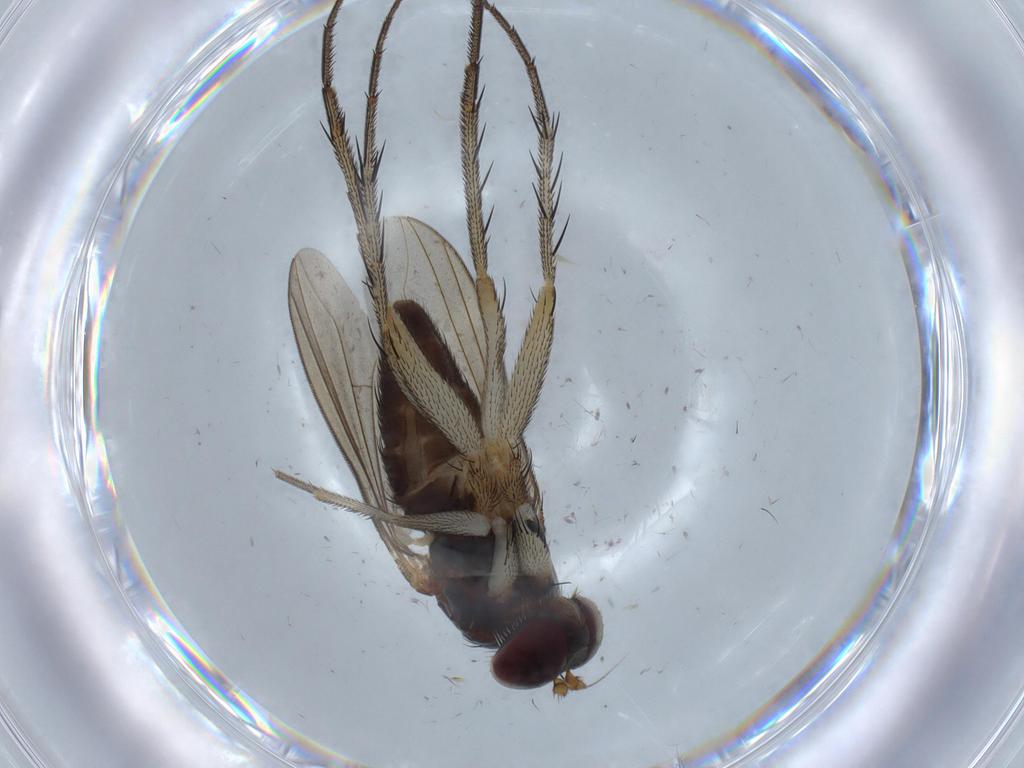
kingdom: Animalia
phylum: Arthropoda
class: Insecta
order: Diptera
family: Dolichopodidae
